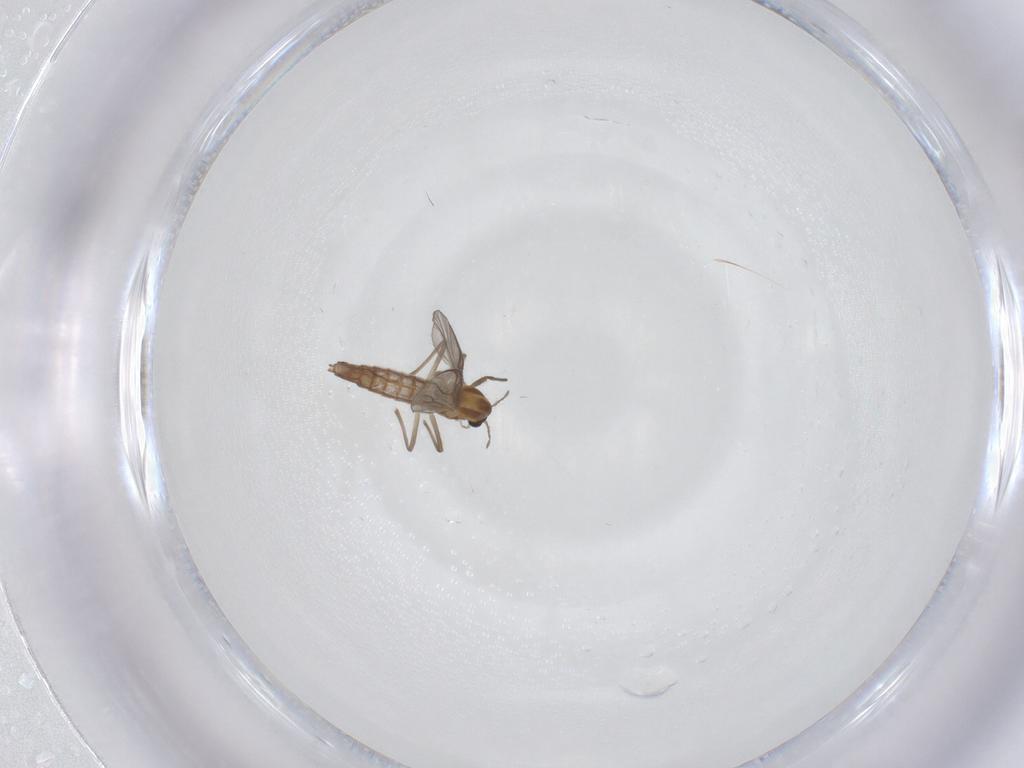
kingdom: Animalia
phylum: Arthropoda
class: Insecta
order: Diptera
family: Chironomidae
